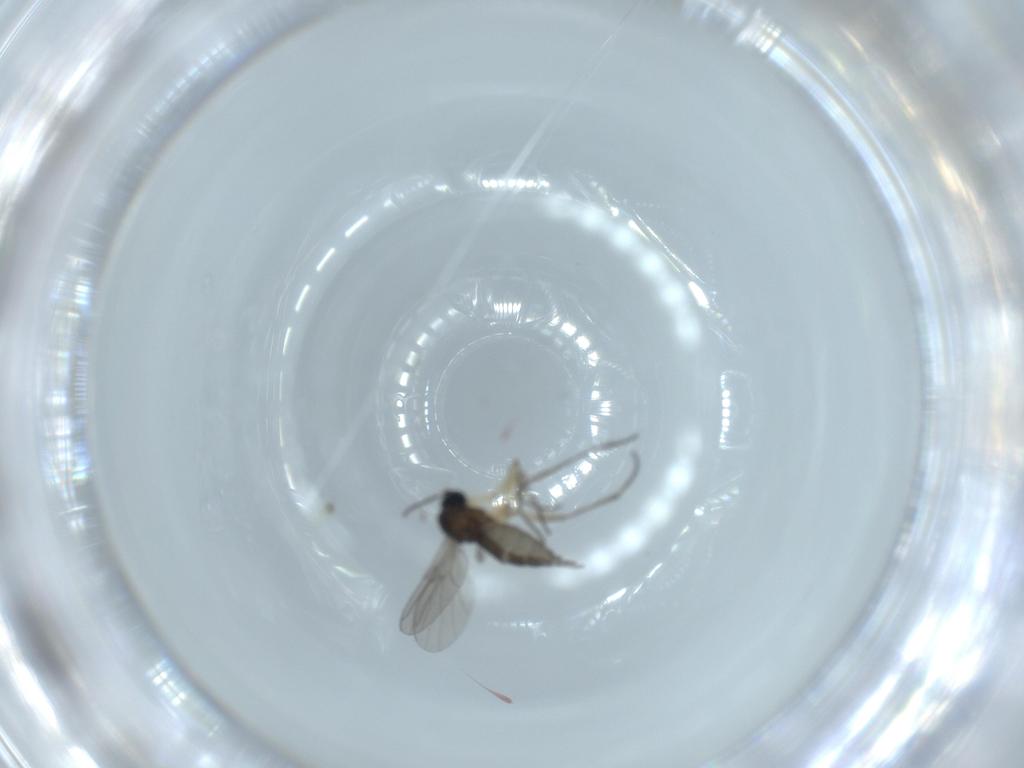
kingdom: Animalia
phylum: Arthropoda
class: Insecta
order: Diptera
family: Sciaridae
